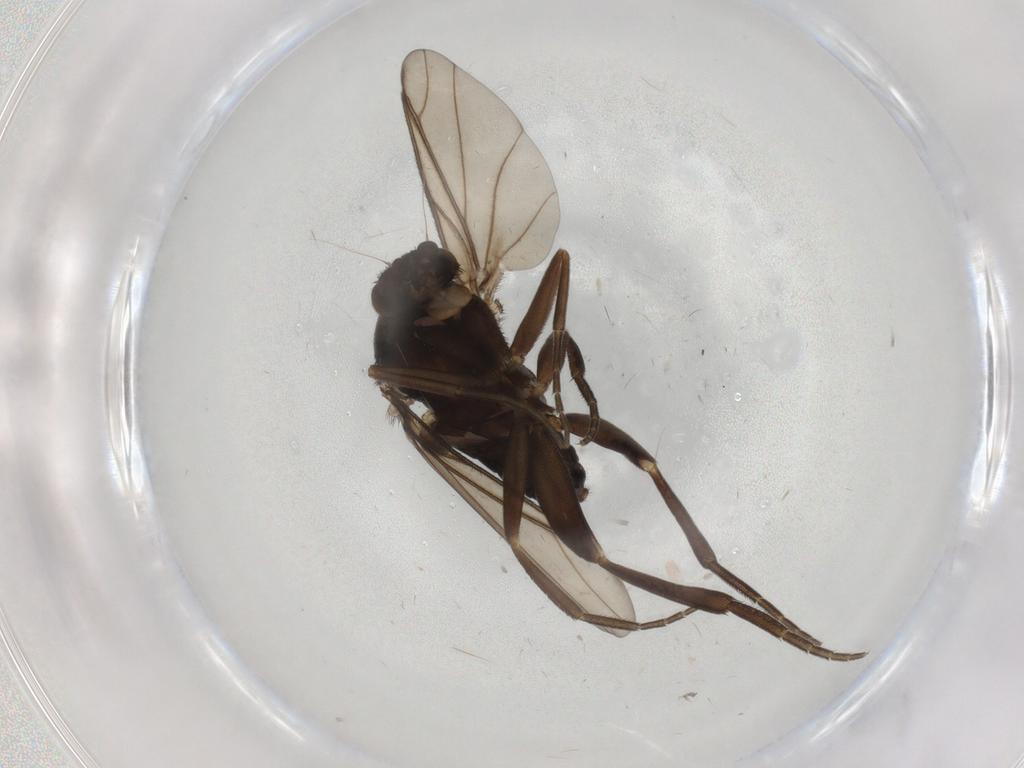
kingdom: Animalia
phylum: Arthropoda
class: Insecta
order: Diptera
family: Phoridae
